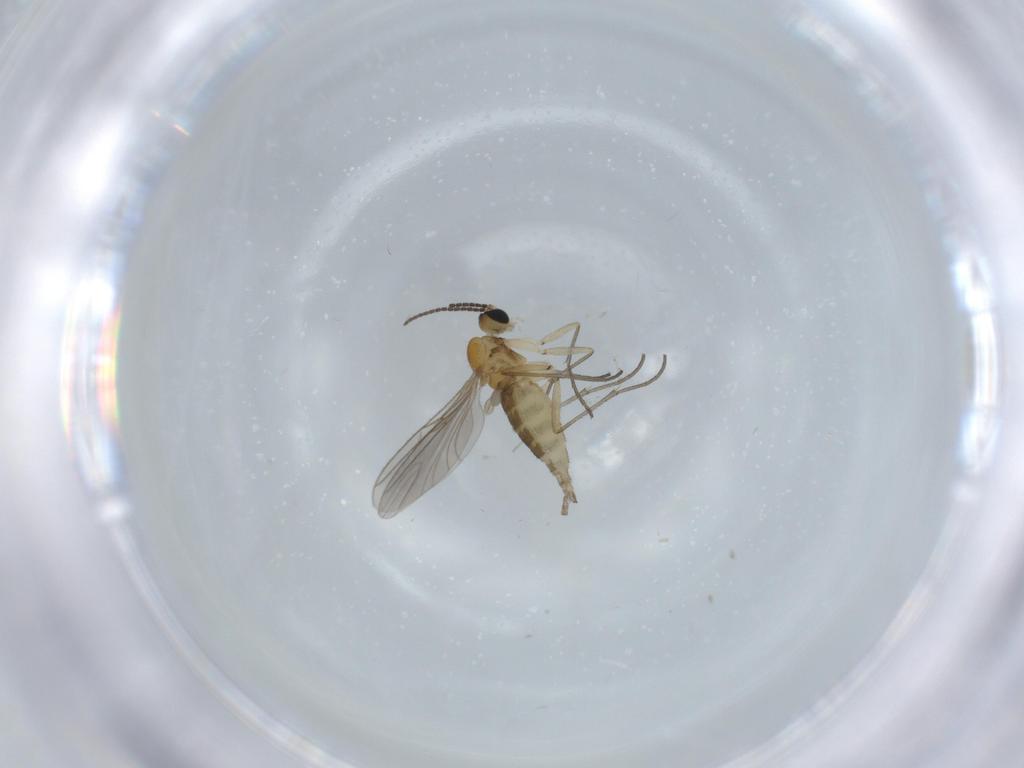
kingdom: Animalia
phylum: Arthropoda
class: Insecta
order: Diptera
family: Sciaridae
